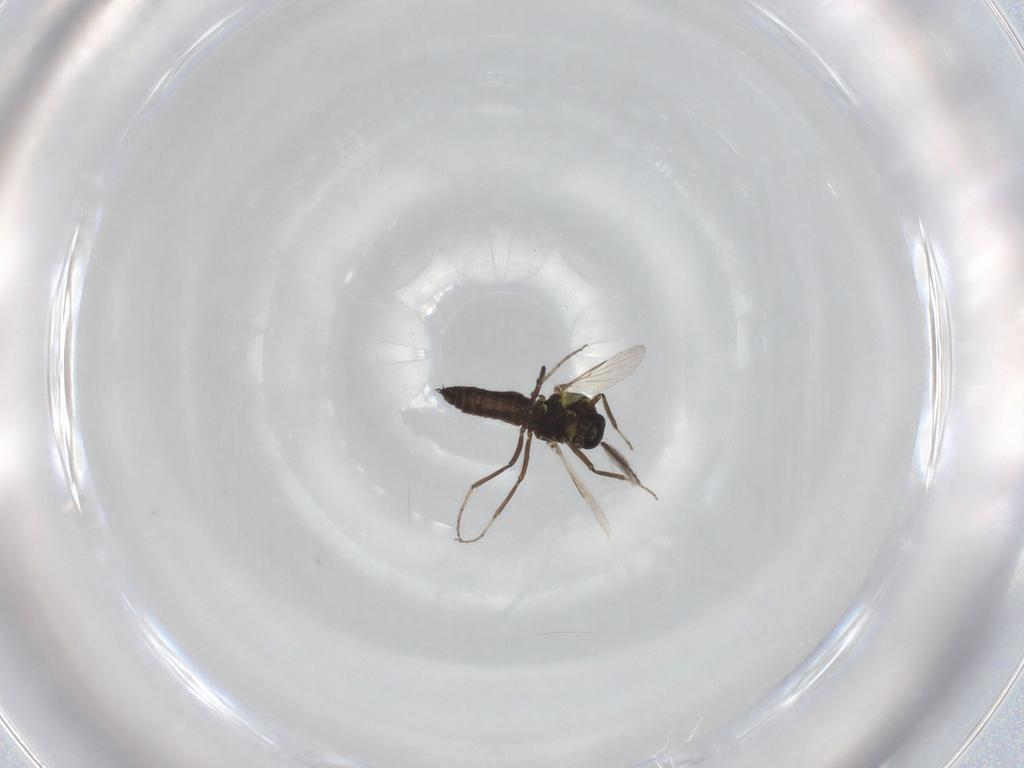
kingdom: Animalia
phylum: Arthropoda
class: Insecta
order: Diptera
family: Ceratopogonidae
